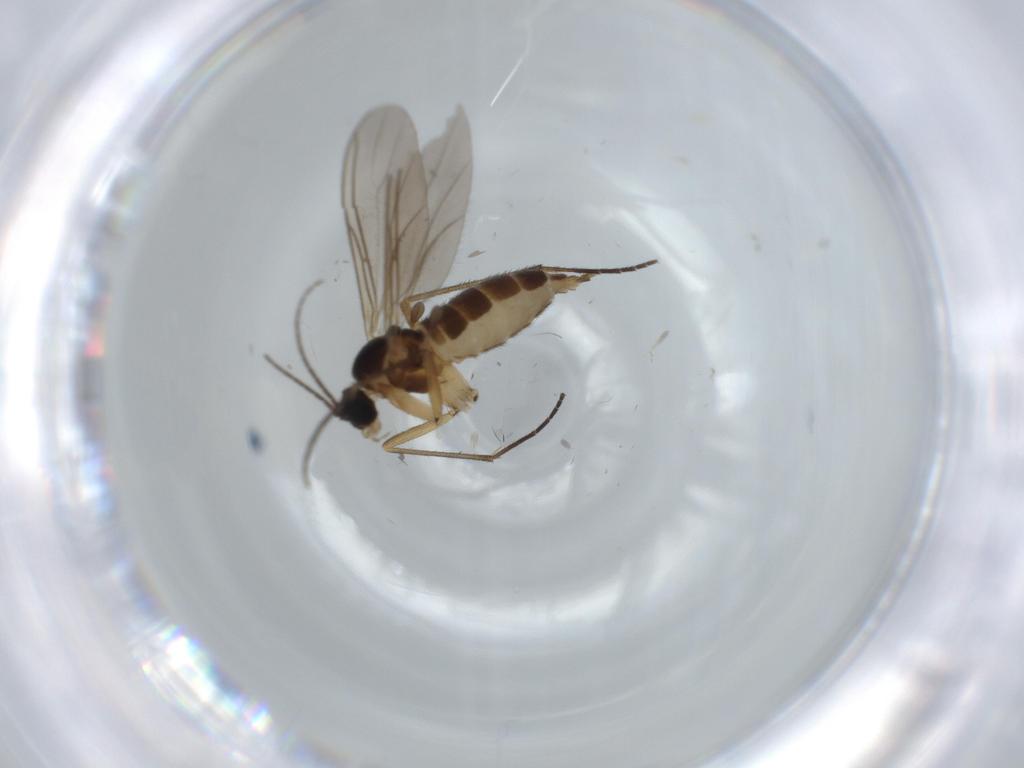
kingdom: Animalia
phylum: Arthropoda
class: Insecta
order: Diptera
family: Sciaridae
